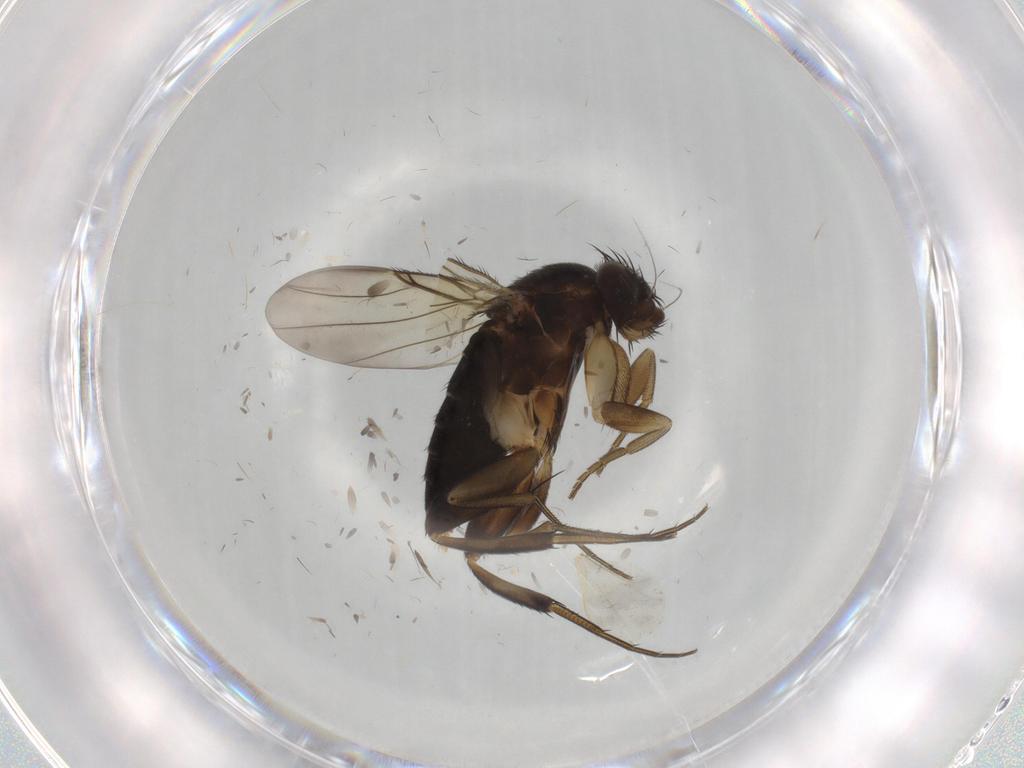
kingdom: Animalia
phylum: Arthropoda
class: Insecta
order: Diptera
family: Phoridae
